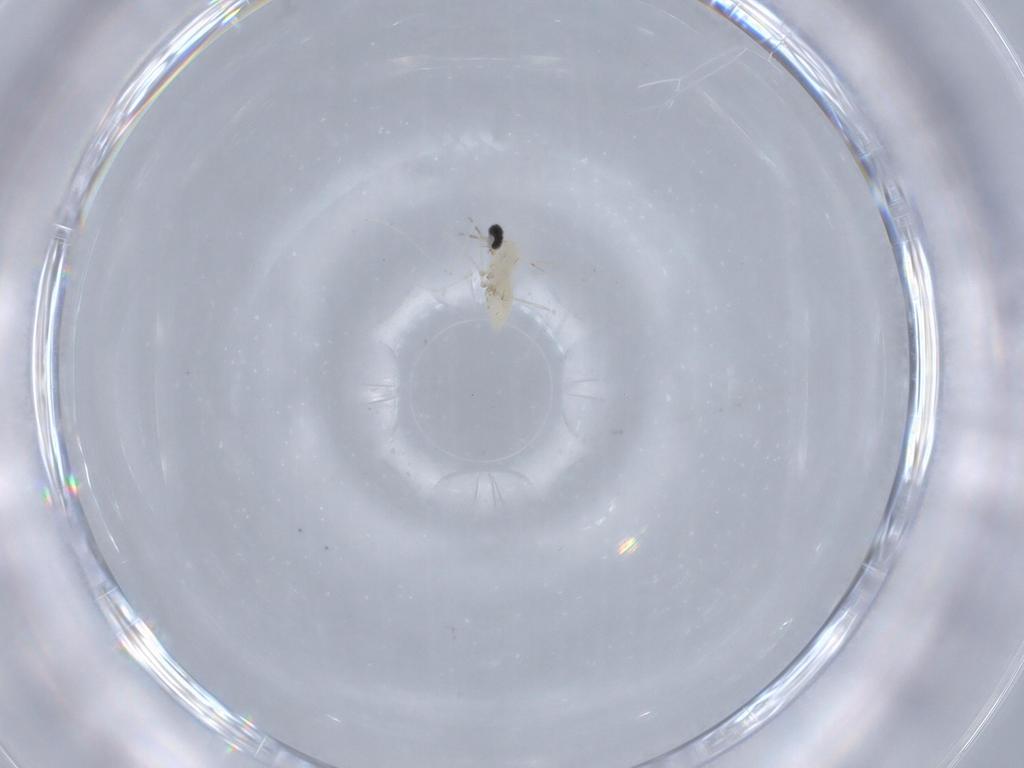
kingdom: Animalia
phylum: Arthropoda
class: Insecta
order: Diptera
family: Cecidomyiidae
